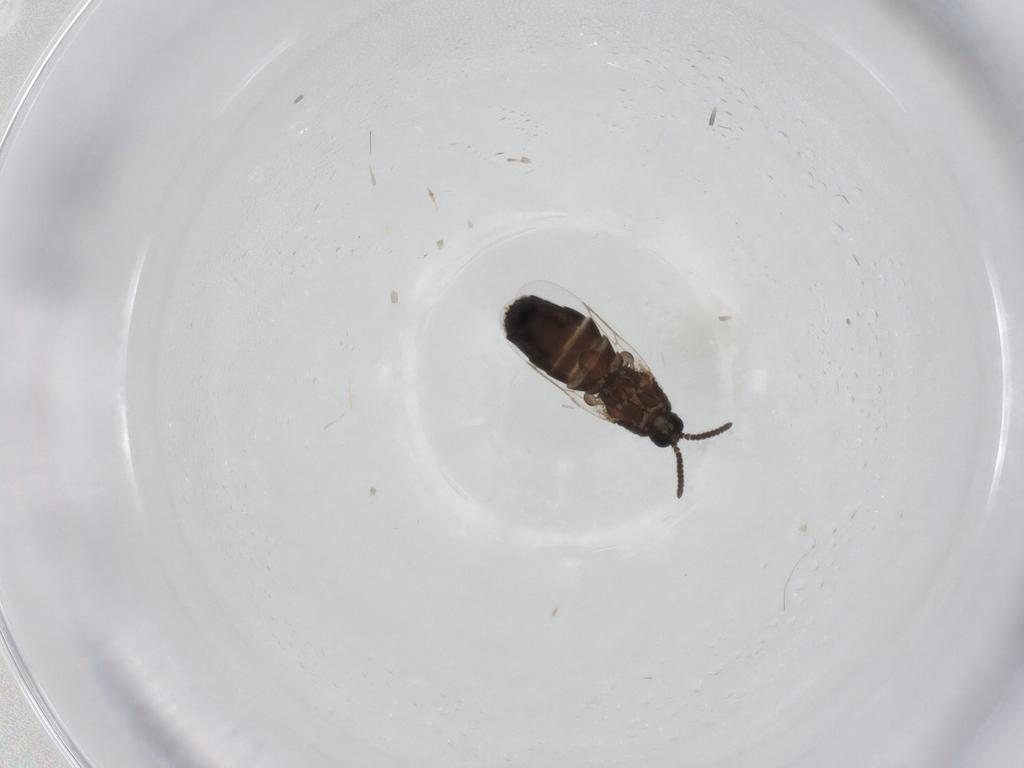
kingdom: Animalia
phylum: Arthropoda
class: Insecta
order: Diptera
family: Scatopsidae
